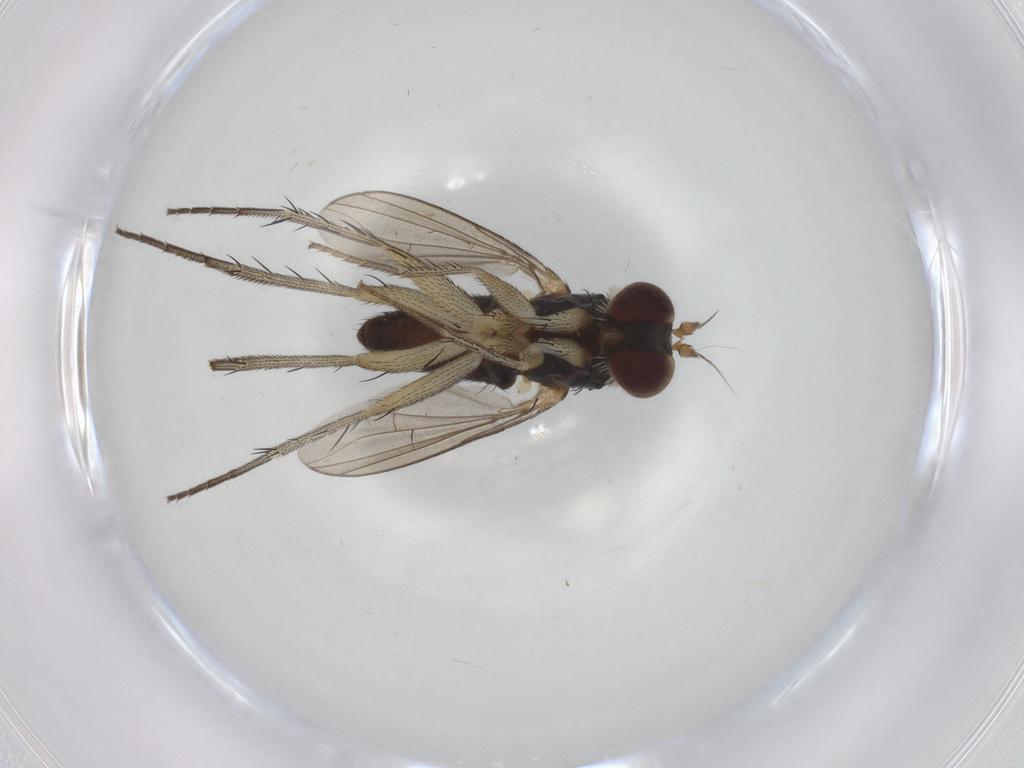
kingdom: Animalia
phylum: Arthropoda
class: Insecta
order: Diptera
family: Dolichopodidae
